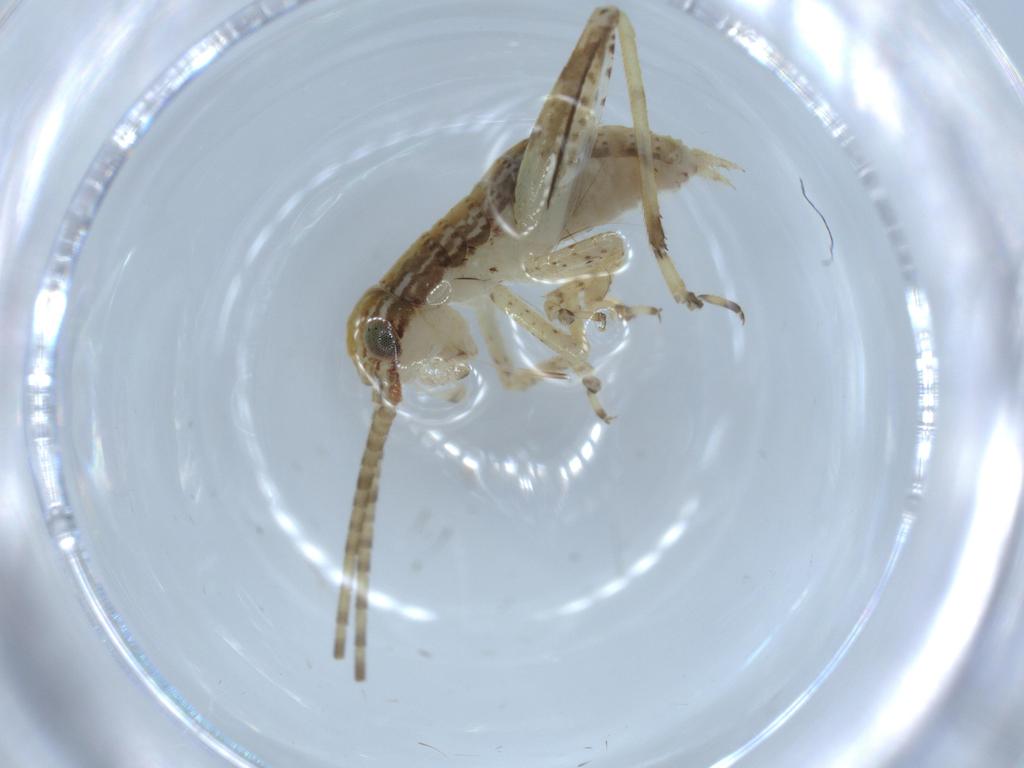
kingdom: Animalia
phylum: Arthropoda
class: Insecta
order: Orthoptera
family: Gryllidae
